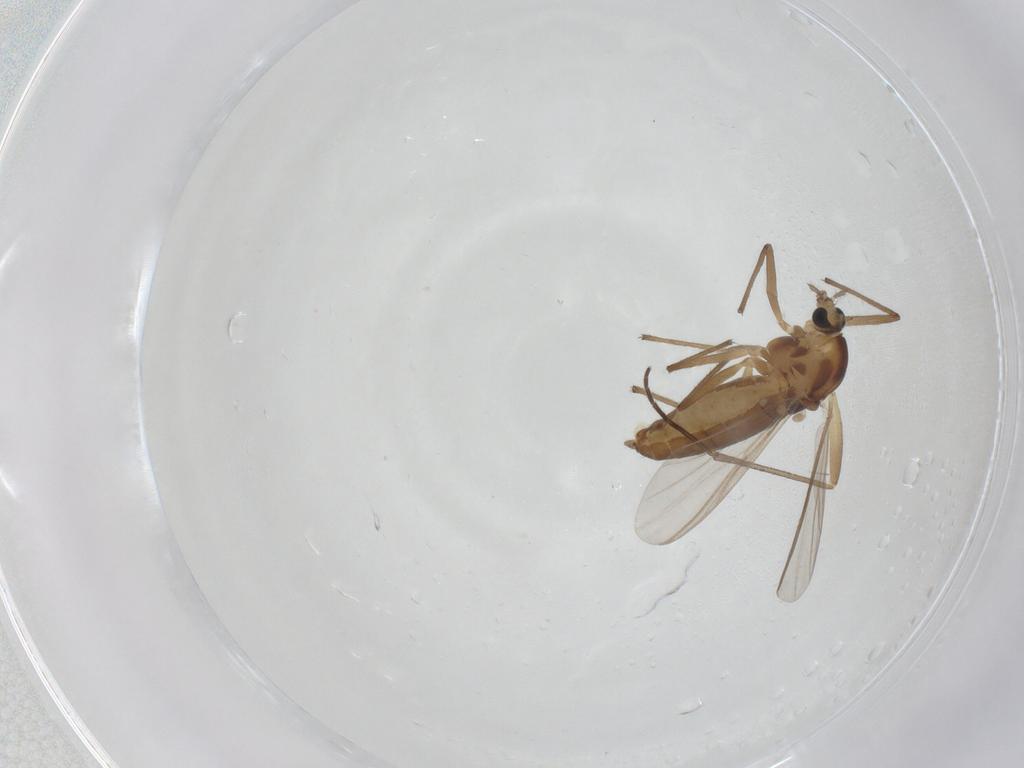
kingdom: Animalia
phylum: Arthropoda
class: Insecta
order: Diptera
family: Chironomidae
